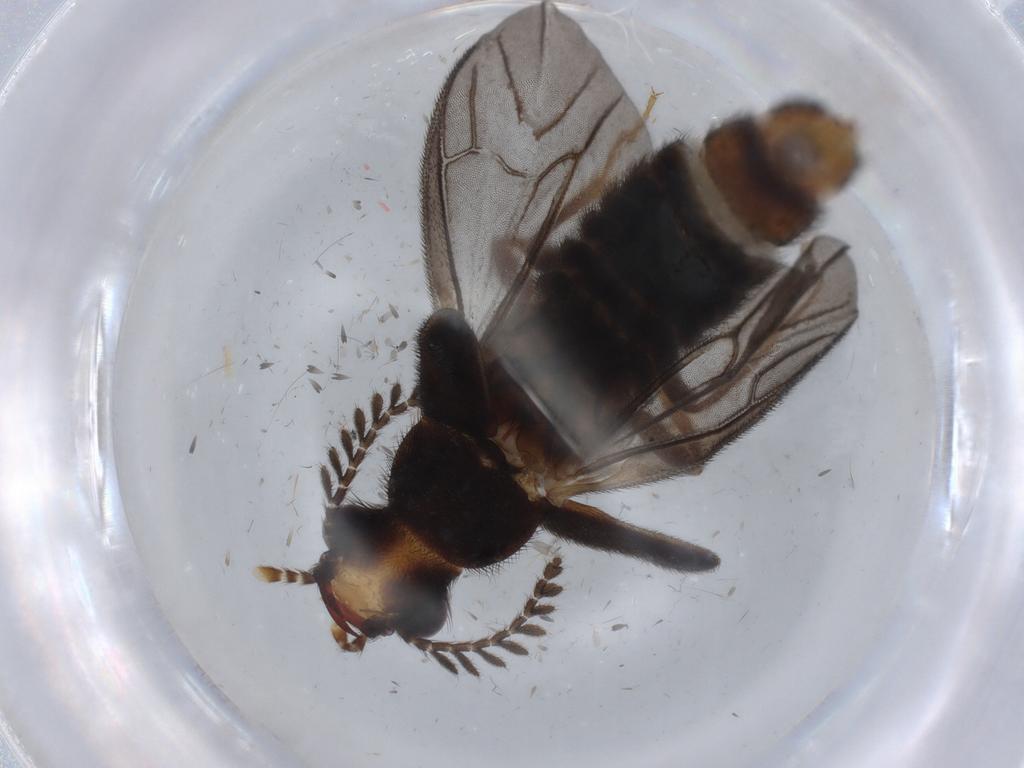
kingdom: Animalia
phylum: Arthropoda
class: Insecta
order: Coleoptera
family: Phengodidae
